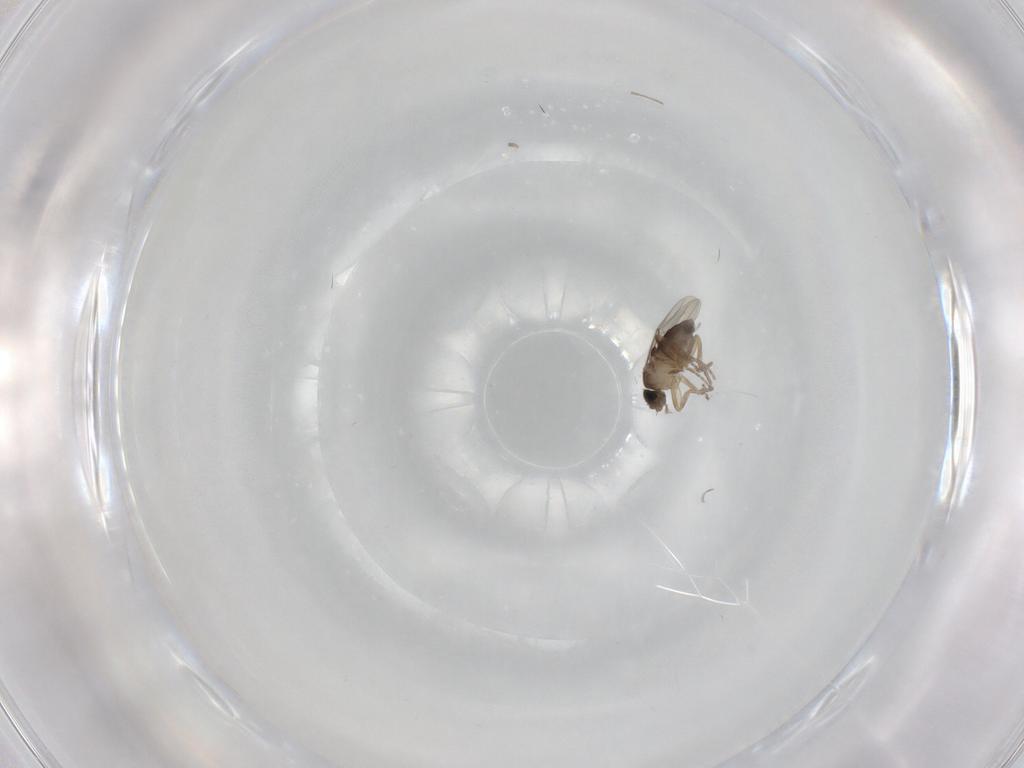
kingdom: Animalia
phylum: Arthropoda
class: Insecta
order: Diptera
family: Phoridae
